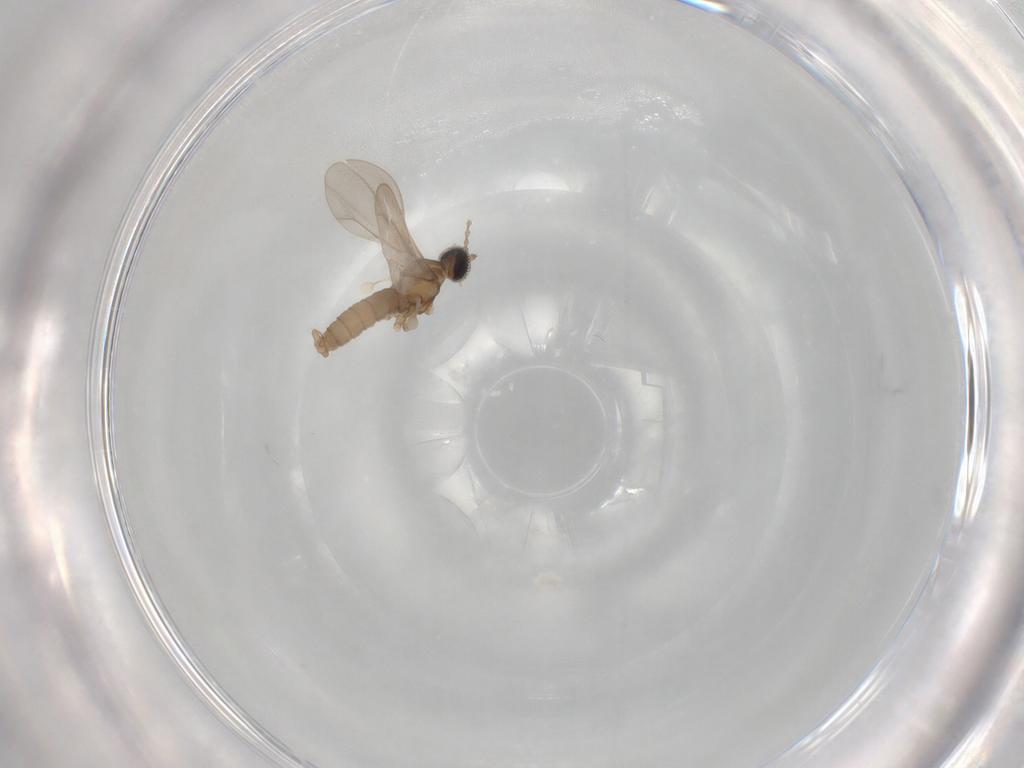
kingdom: Animalia
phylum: Arthropoda
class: Insecta
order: Diptera
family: Cecidomyiidae
